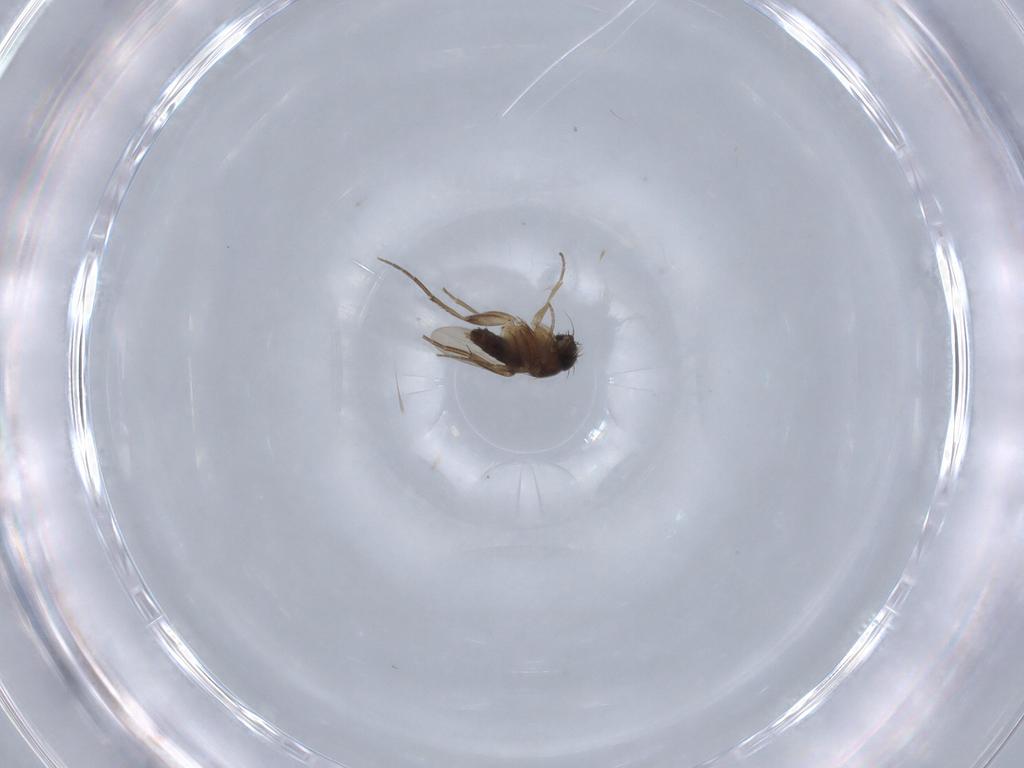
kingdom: Animalia
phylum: Arthropoda
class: Insecta
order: Diptera
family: Phoridae
